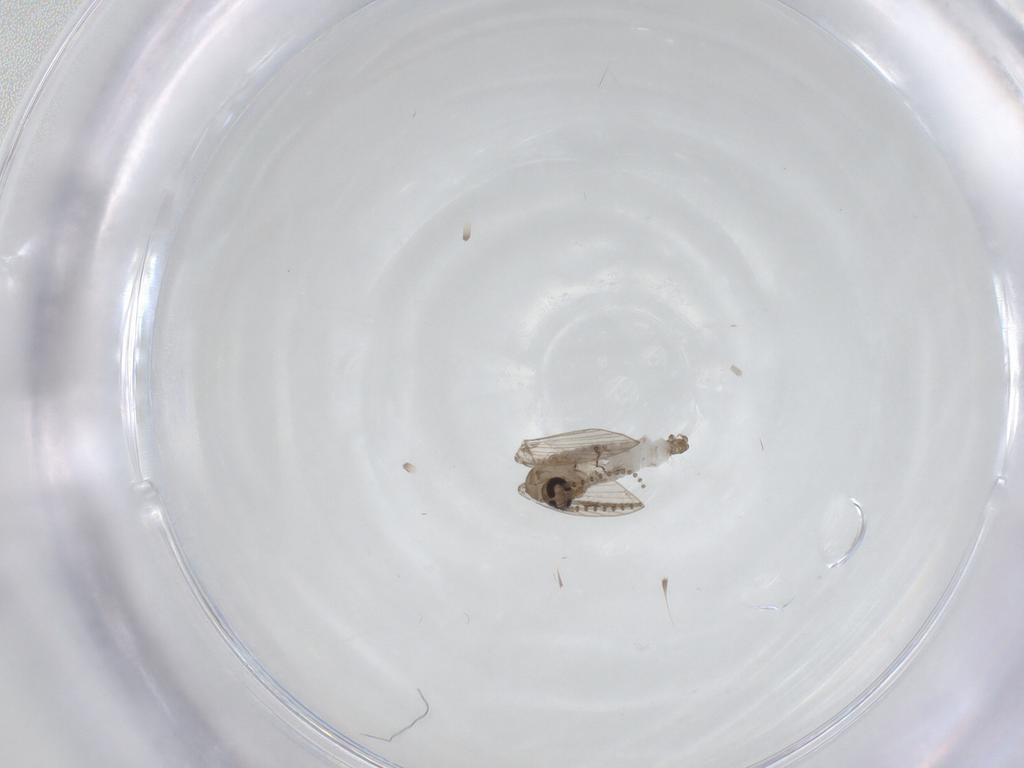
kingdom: Animalia
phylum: Arthropoda
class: Insecta
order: Diptera
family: Psychodidae
